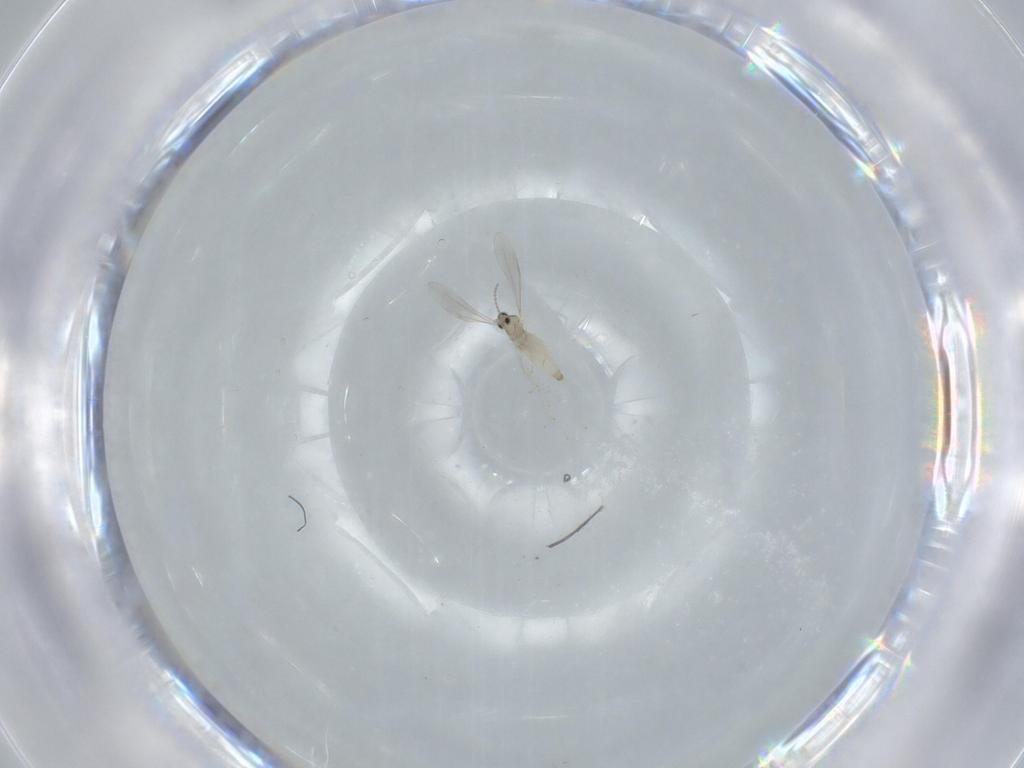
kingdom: Animalia
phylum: Arthropoda
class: Insecta
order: Diptera
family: Cecidomyiidae
